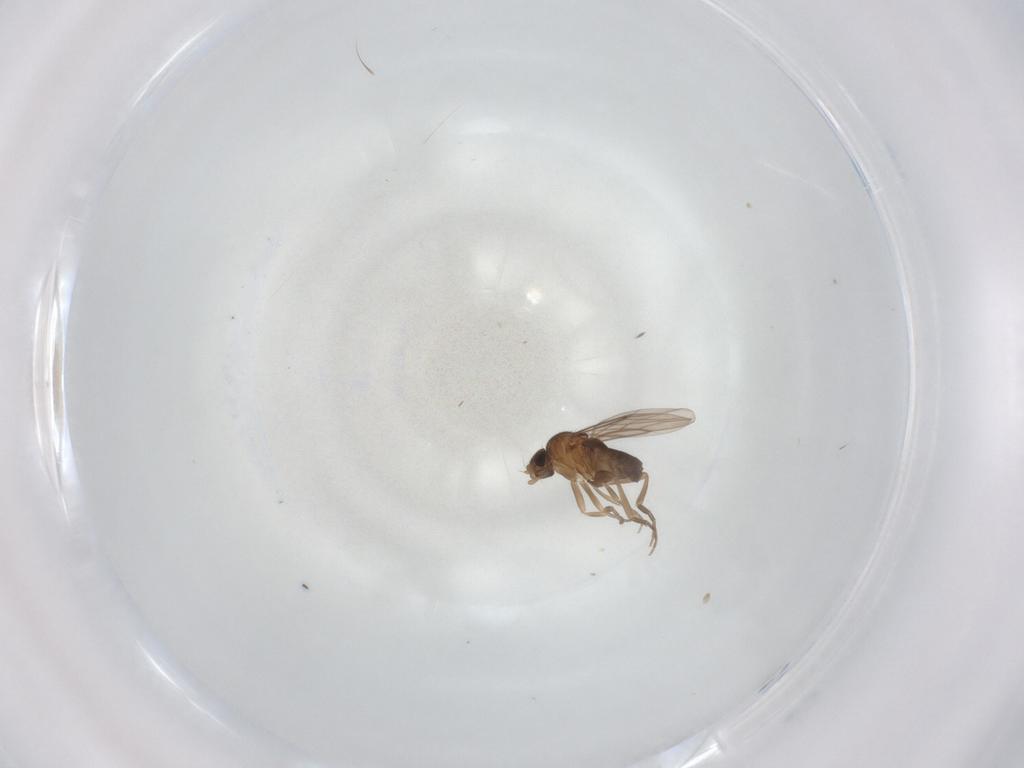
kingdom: Animalia
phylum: Arthropoda
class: Insecta
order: Diptera
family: Phoridae
